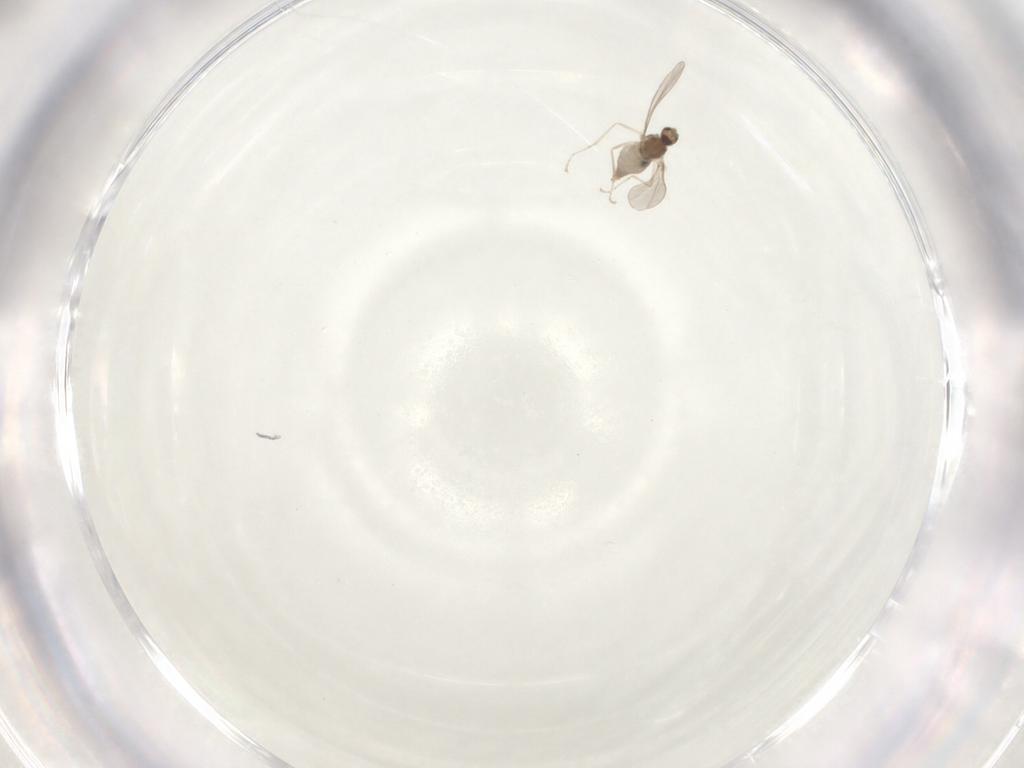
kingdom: Animalia
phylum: Arthropoda
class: Insecta
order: Diptera
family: Cecidomyiidae
